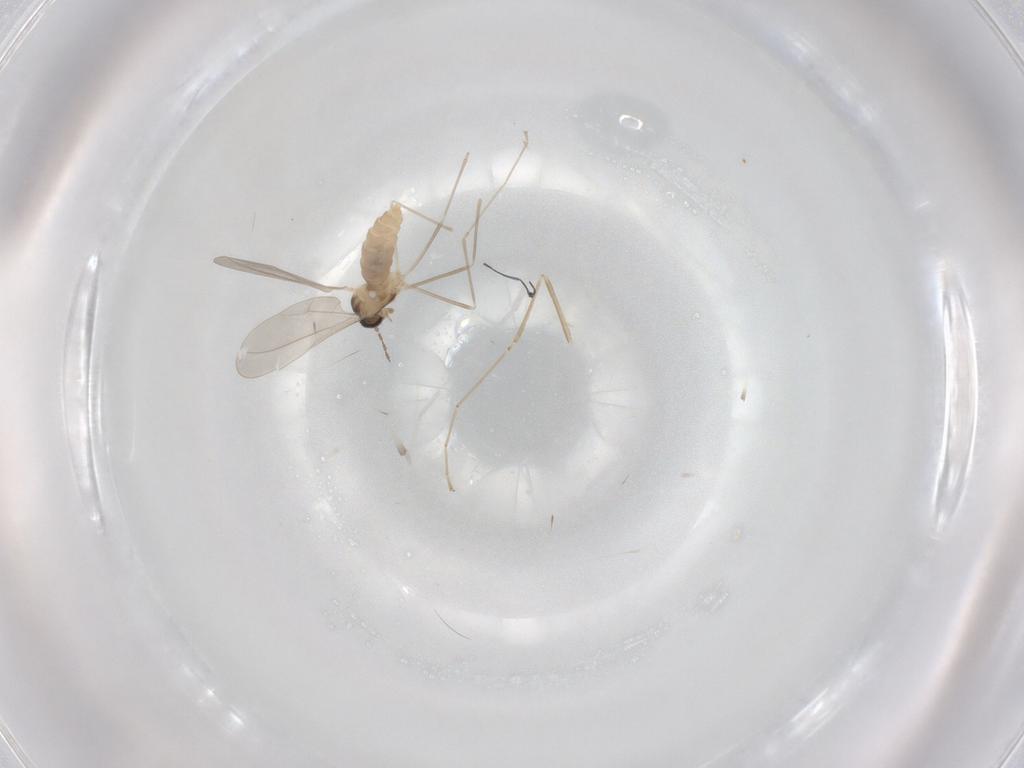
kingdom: Animalia
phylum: Arthropoda
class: Insecta
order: Diptera
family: Cecidomyiidae
